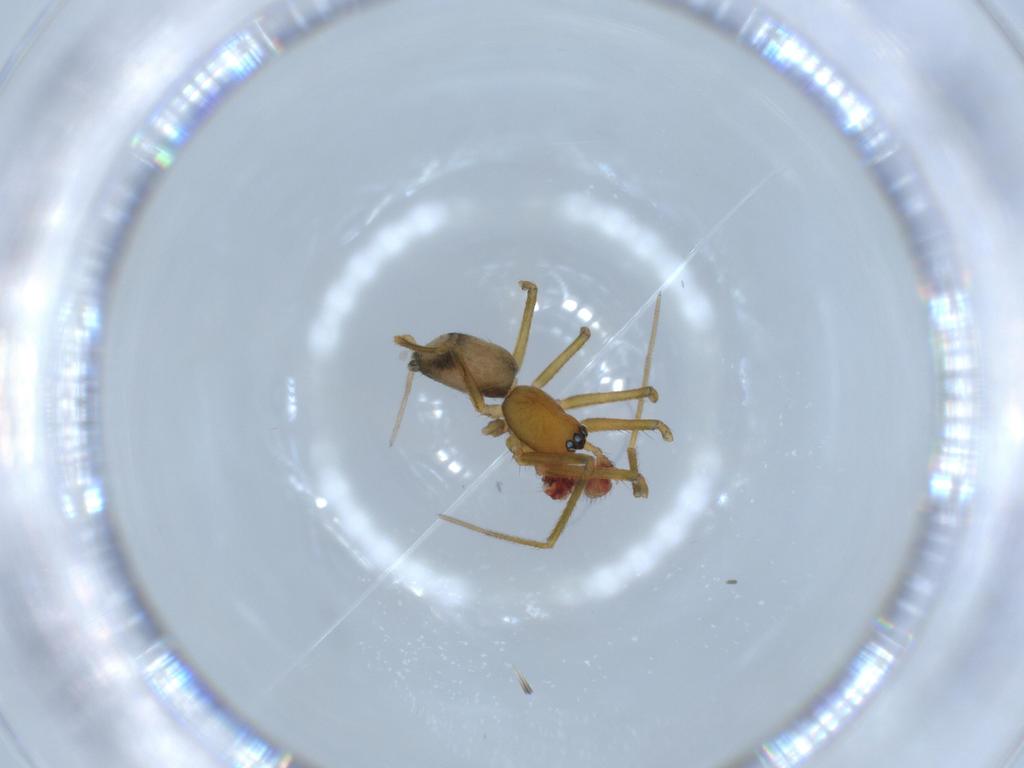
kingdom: Animalia
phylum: Arthropoda
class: Arachnida
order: Araneae
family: Linyphiidae
